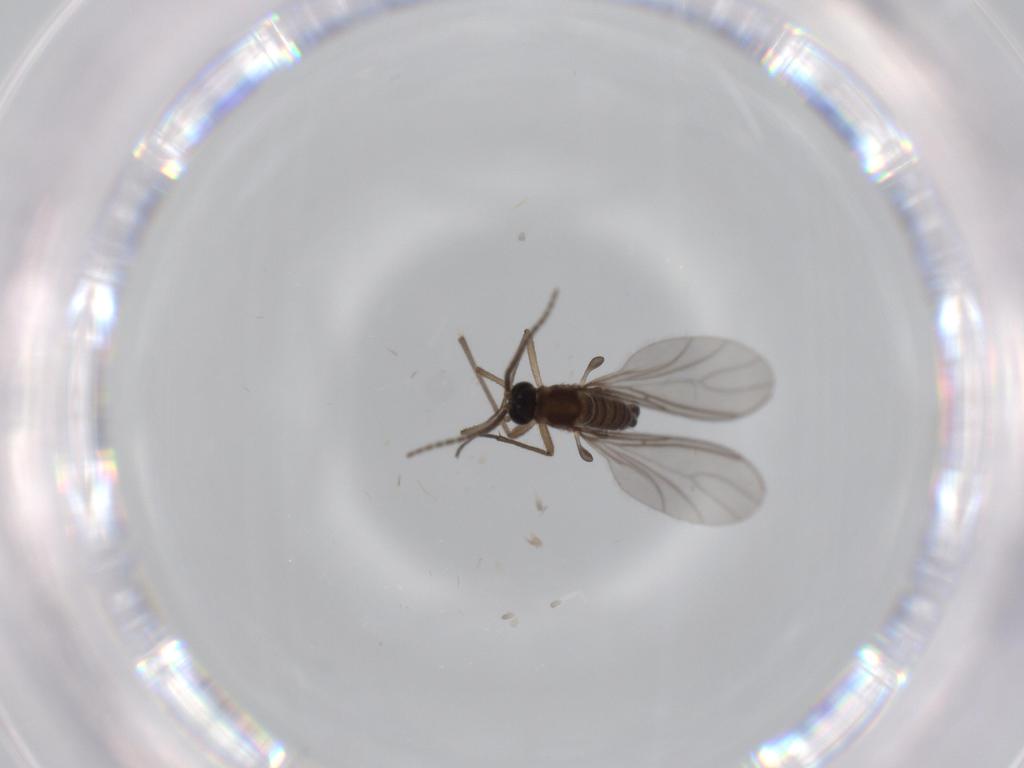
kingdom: Animalia
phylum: Arthropoda
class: Insecta
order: Diptera
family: Sciaridae
